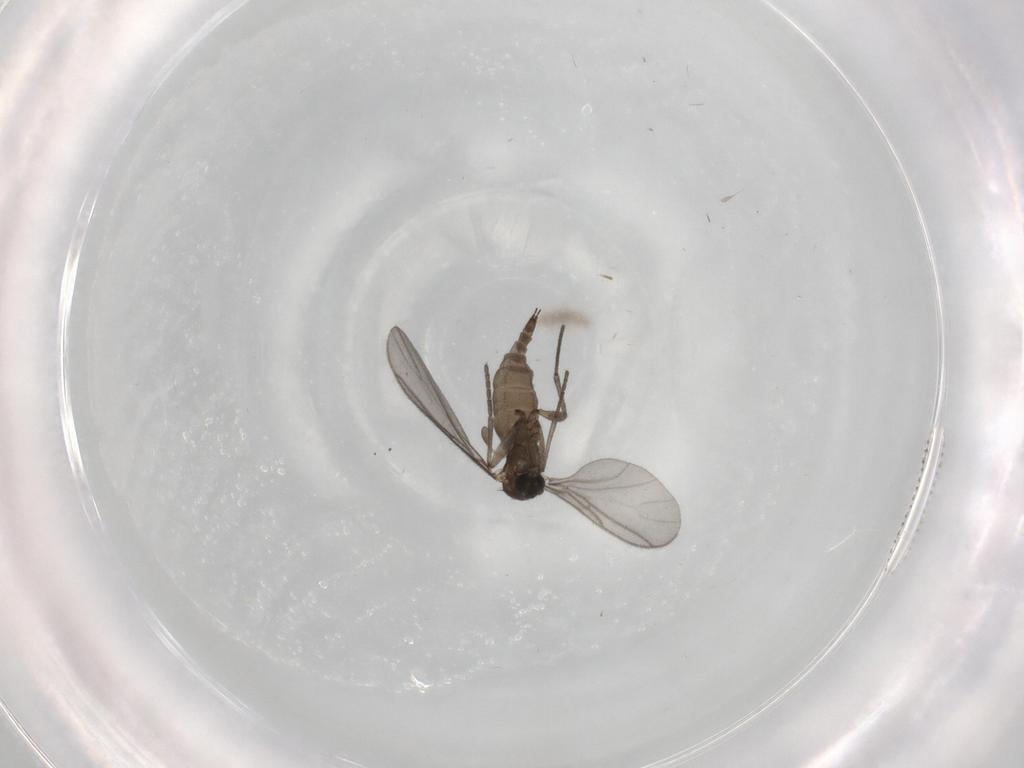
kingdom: Animalia
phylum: Arthropoda
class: Insecta
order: Diptera
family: Sciaridae
